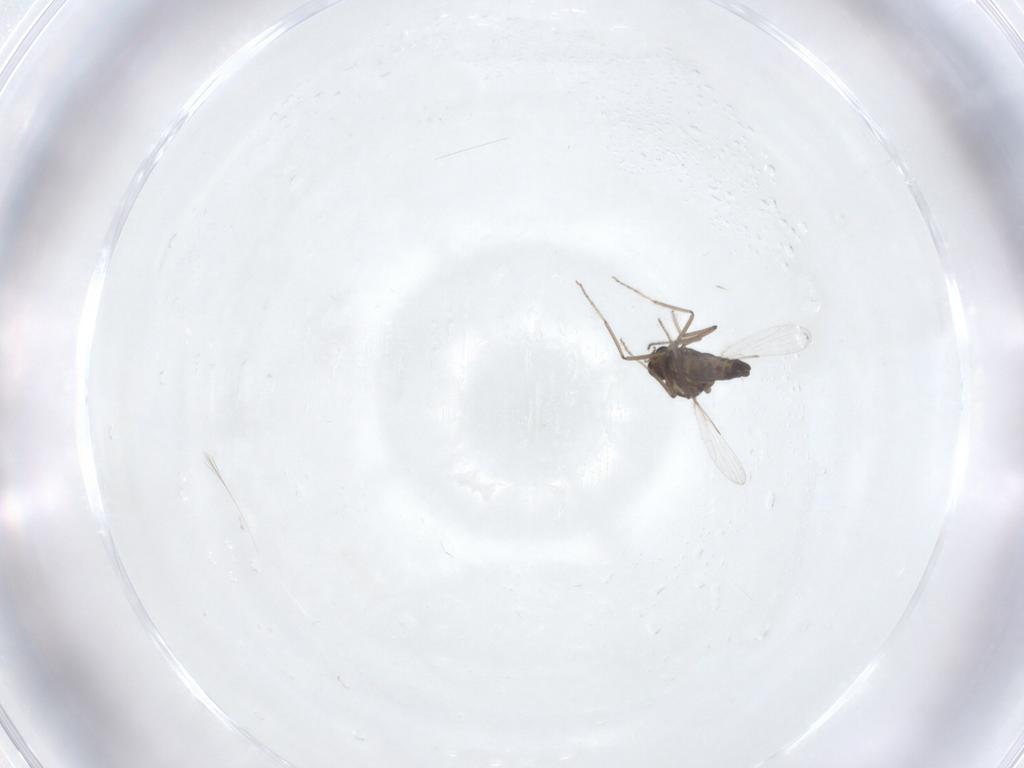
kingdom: Animalia
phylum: Arthropoda
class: Insecta
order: Diptera
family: Ceratopogonidae
